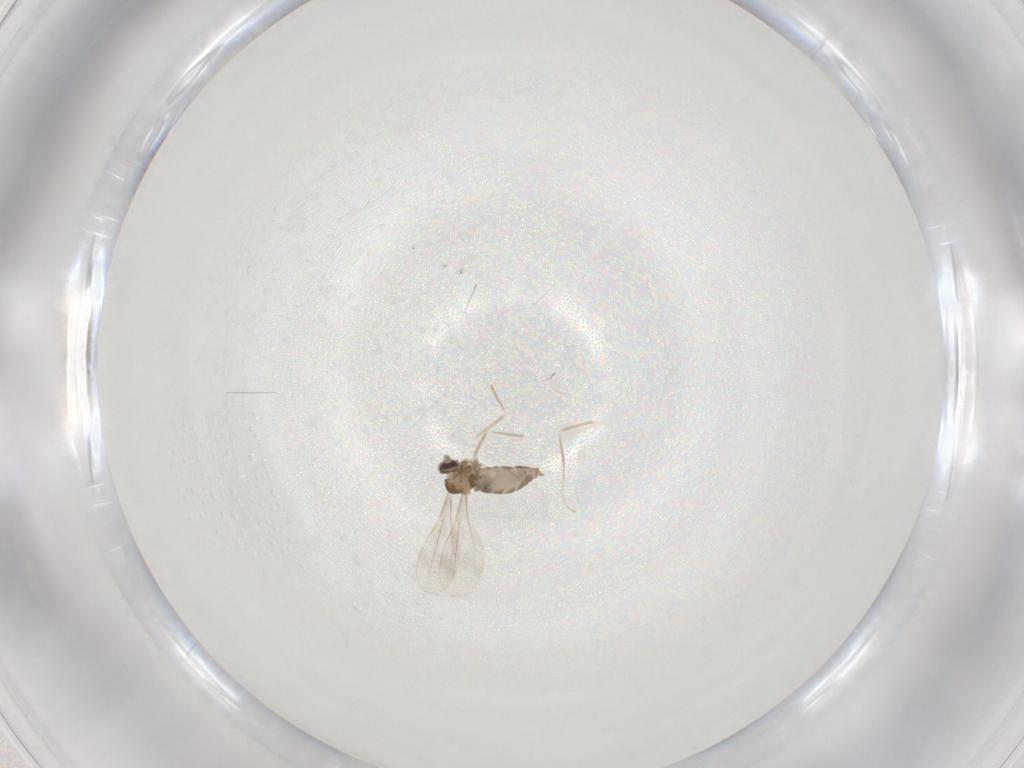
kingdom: Animalia
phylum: Arthropoda
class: Insecta
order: Diptera
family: Cecidomyiidae
